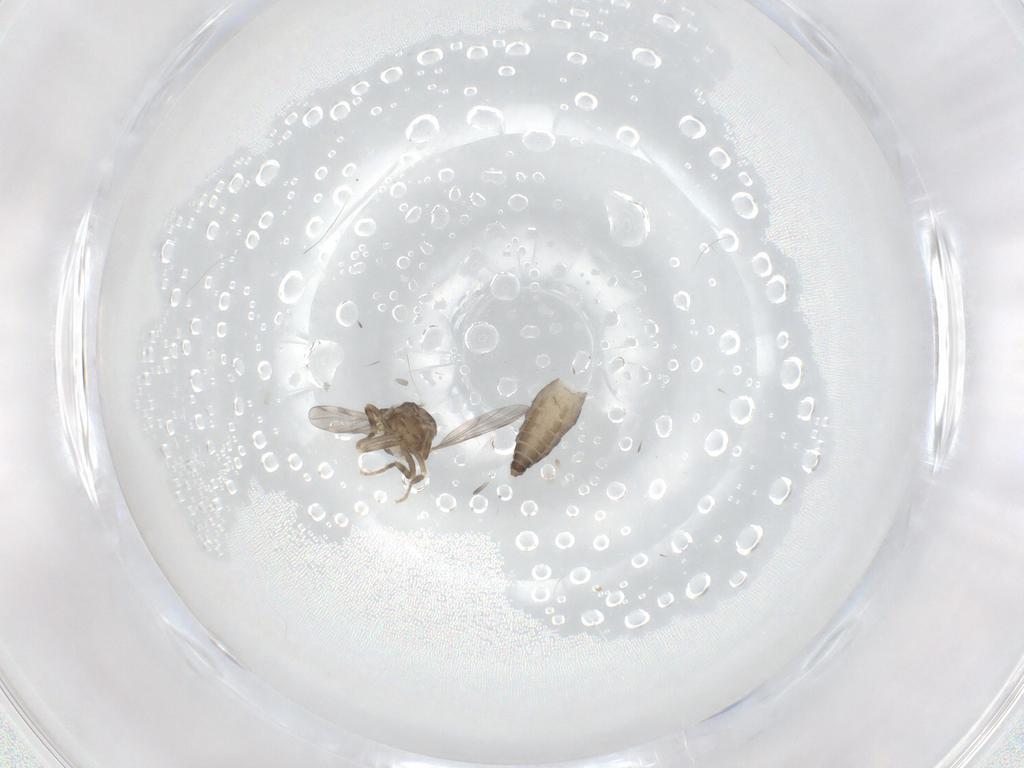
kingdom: Animalia
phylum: Arthropoda
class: Insecta
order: Diptera
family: Ceratopogonidae
